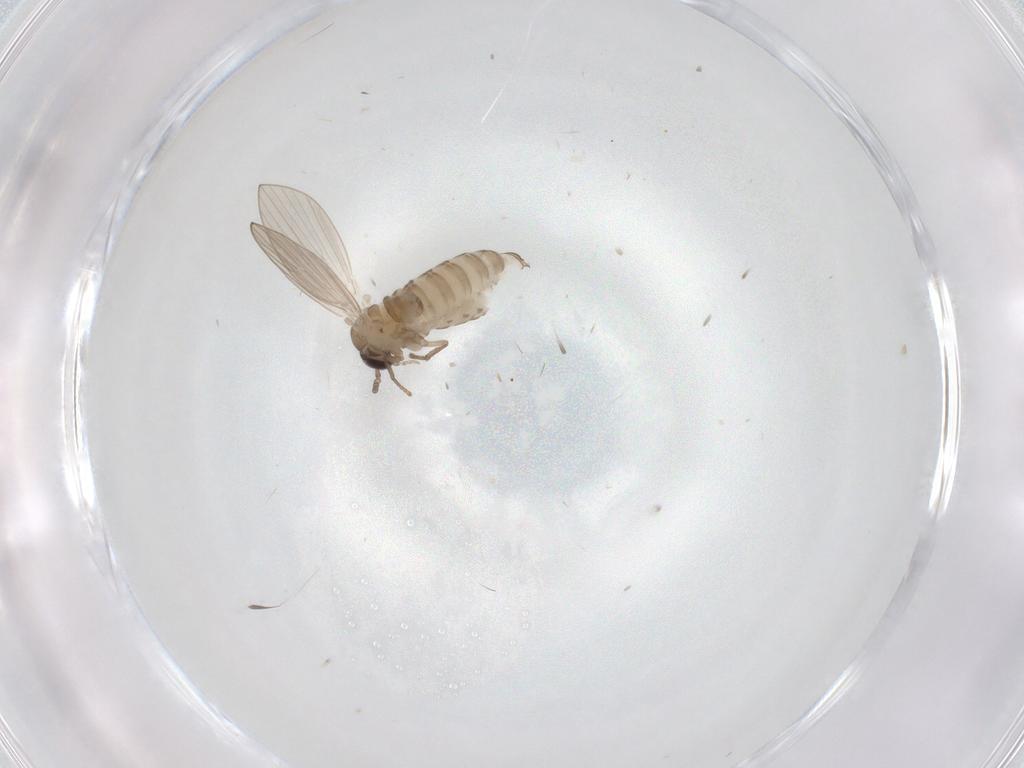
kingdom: Animalia
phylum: Arthropoda
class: Insecta
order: Diptera
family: Psychodidae
